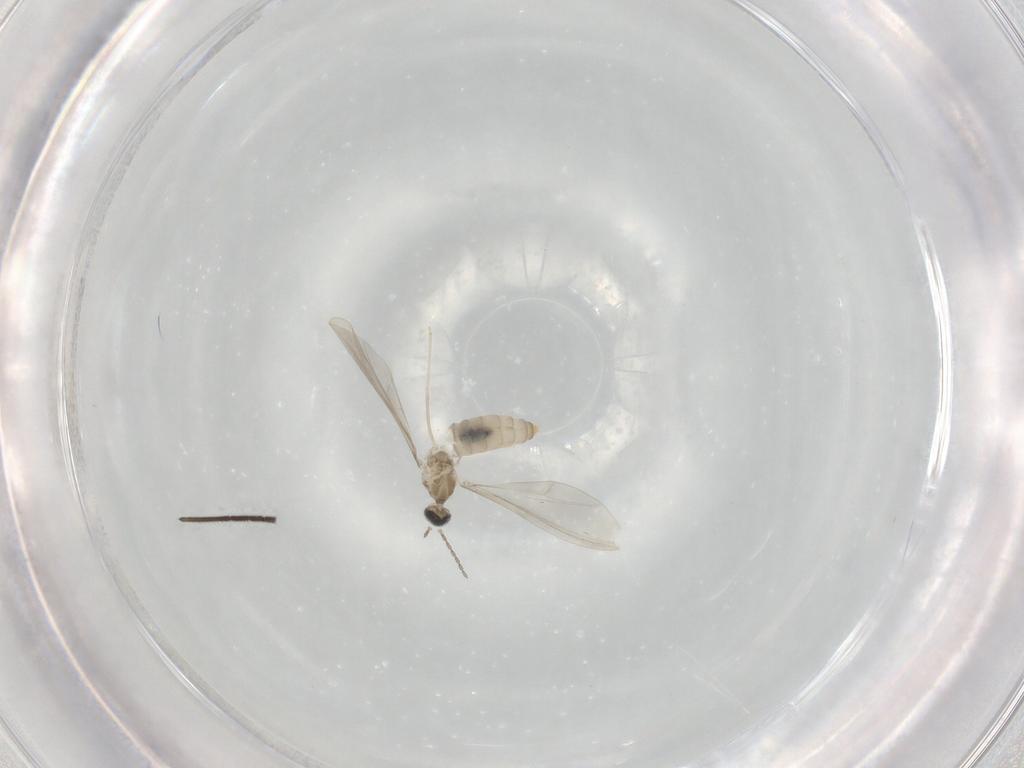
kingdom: Animalia
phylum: Arthropoda
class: Insecta
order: Diptera
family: Cecidomyiidae
